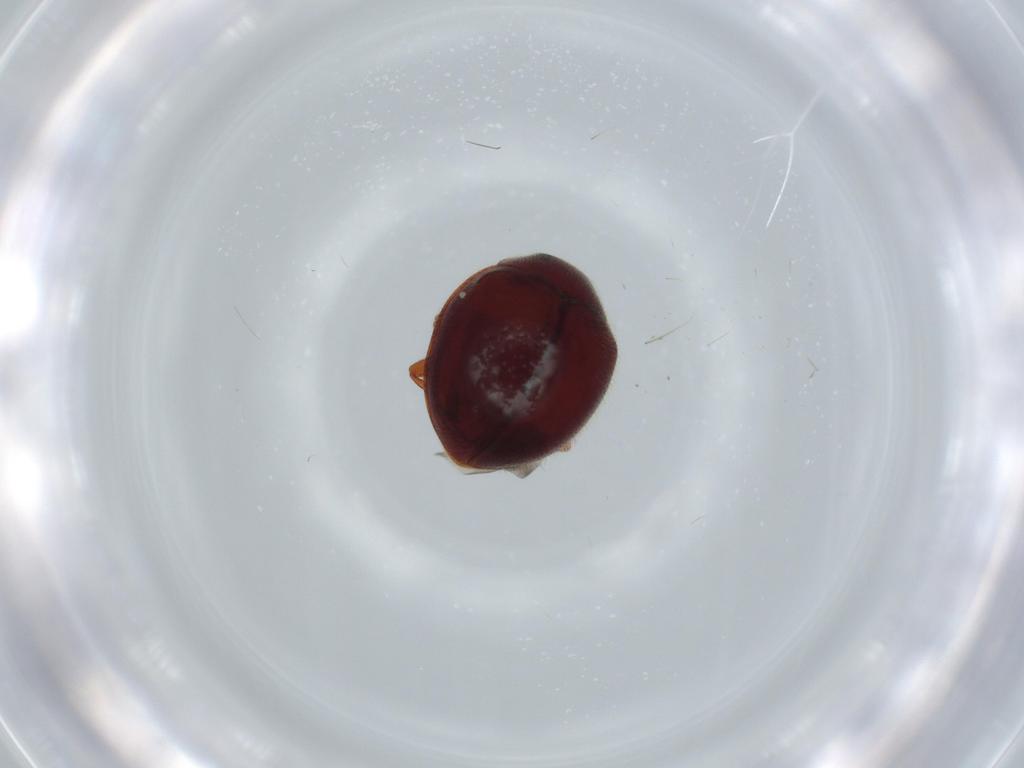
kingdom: Animalia
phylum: Arthropoda
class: Insecta
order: Coleoptera
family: Coccinellidae
